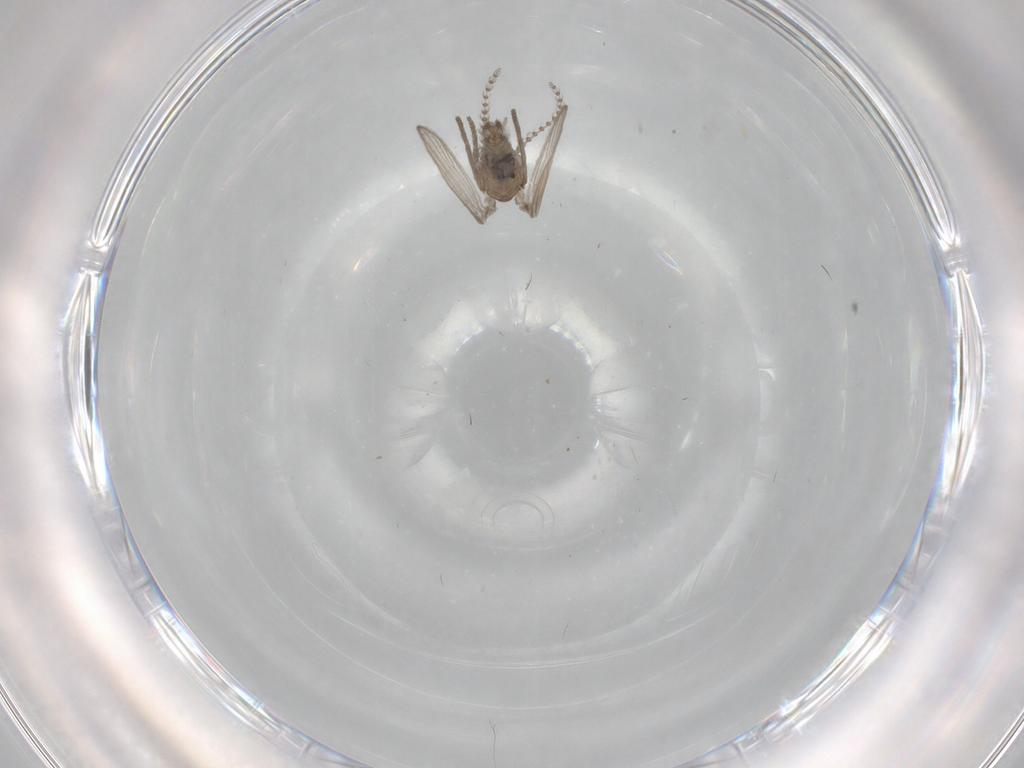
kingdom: Animalia
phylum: Arthropoda
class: Insecta
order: Diptera
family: Psychodidae
